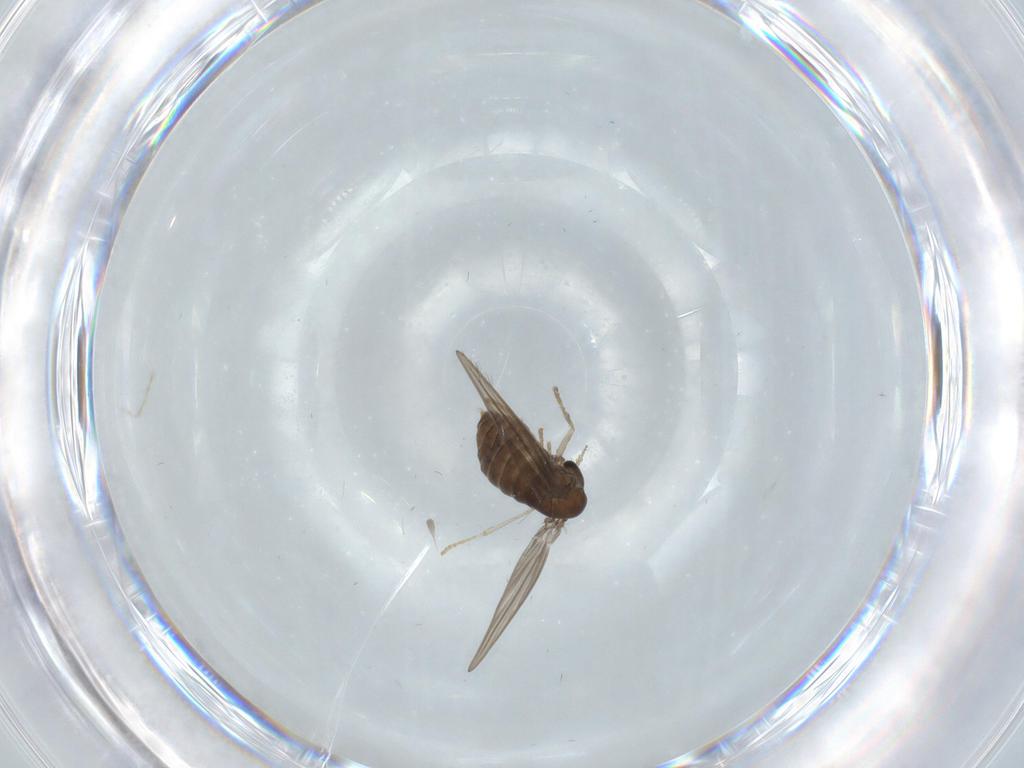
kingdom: Animalia
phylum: Arthropoda
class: Insecta
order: Diptera
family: Psychodidae
